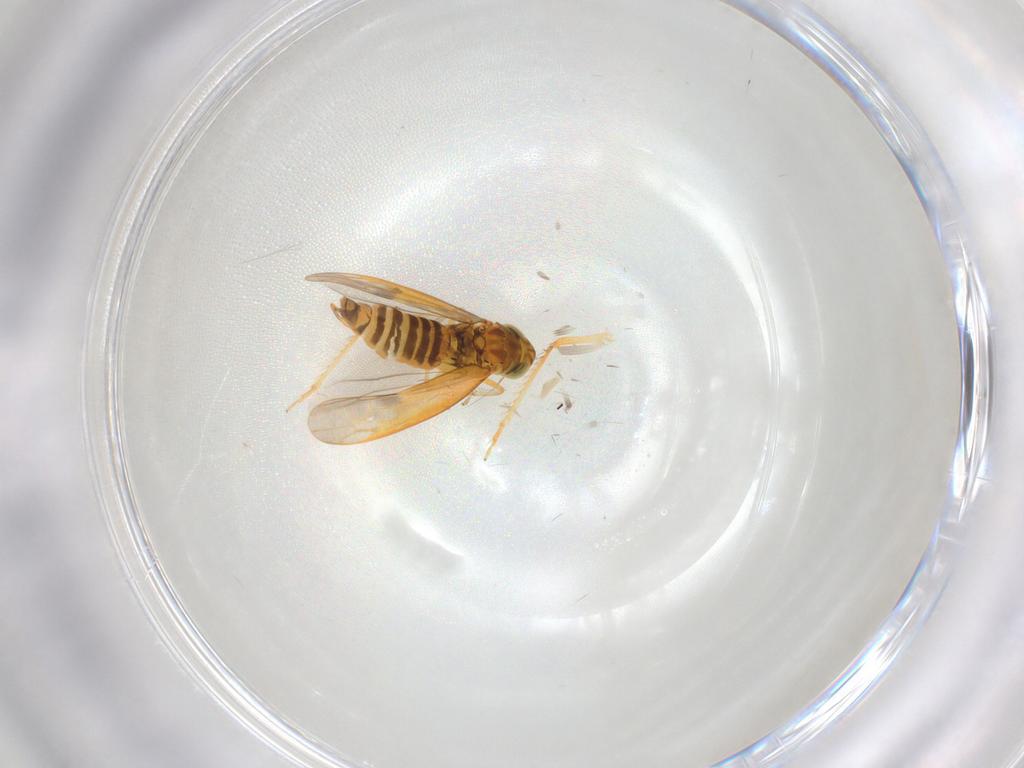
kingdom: Animalia
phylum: Arthropoda
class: Insecta
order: Hemiptera
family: Cicadellidae
